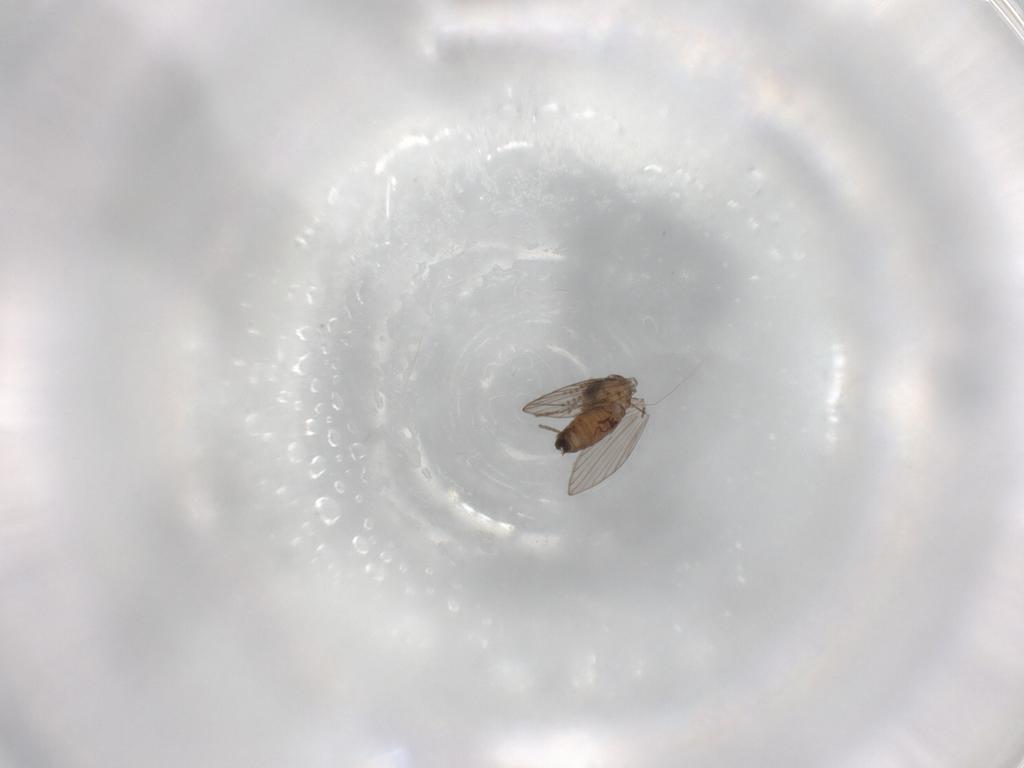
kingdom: Animalia
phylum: Arthropoda
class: Insecta
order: Diptera
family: Psychodidae
